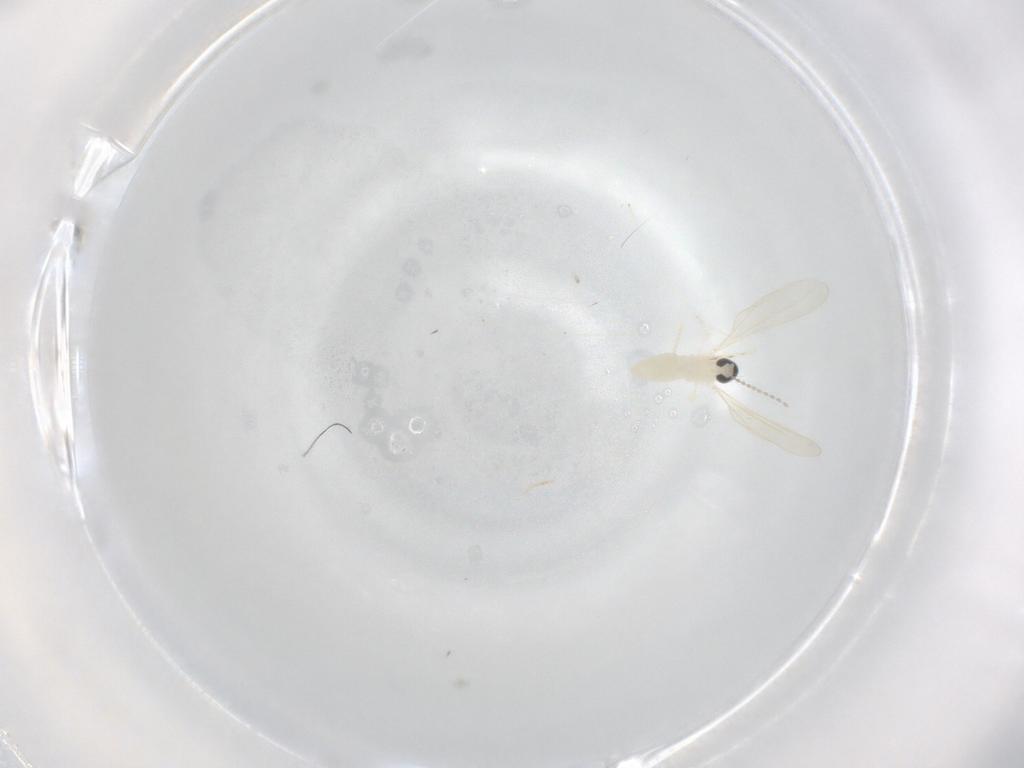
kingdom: Animalia
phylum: Arthropoda
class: Insecta
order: Diptera
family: Cecidomyiidae
